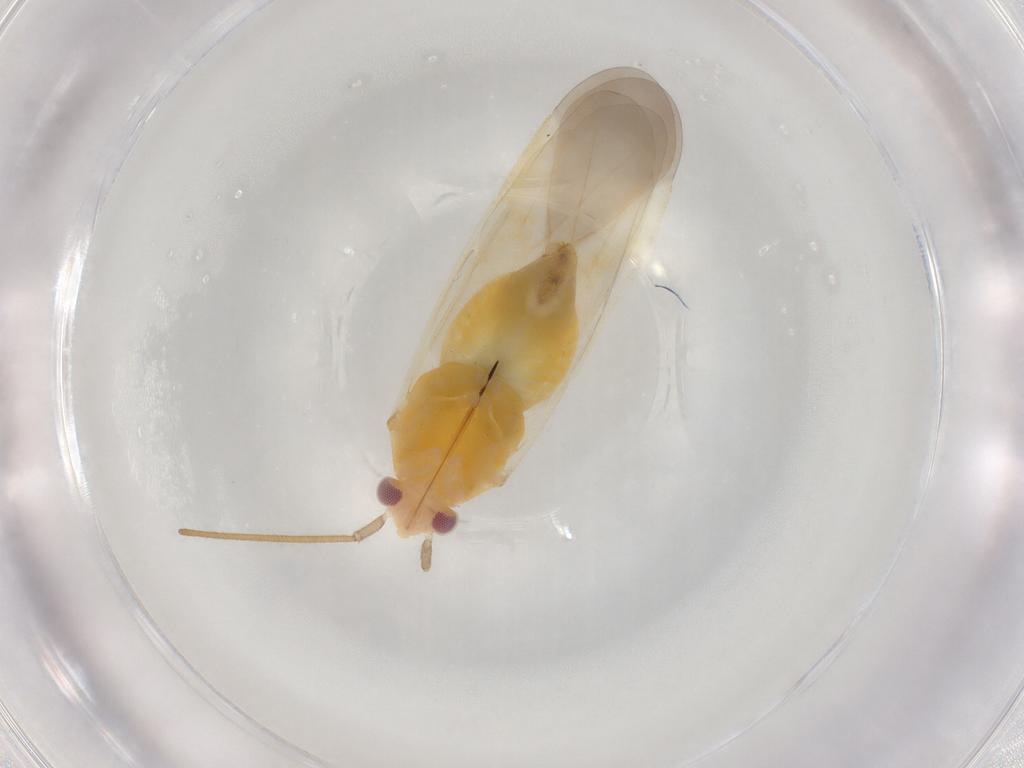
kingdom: Animalia
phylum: Arthropoda
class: Insecta
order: Hemiptera
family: Miridae
